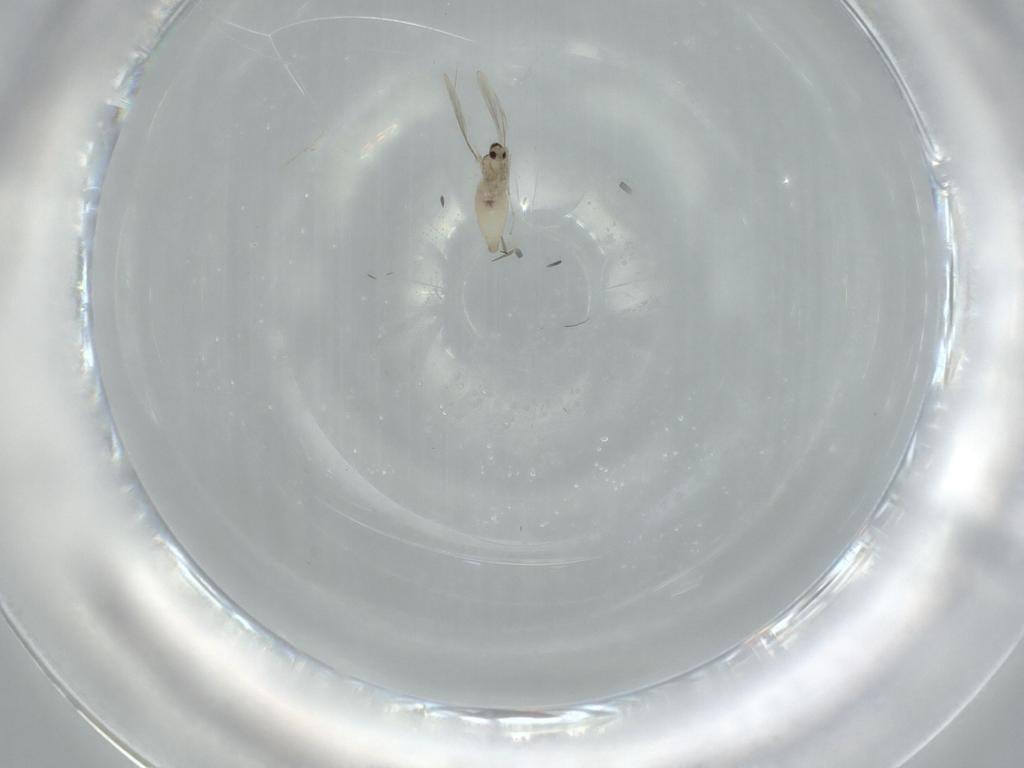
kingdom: Animalia
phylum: Arthropoda
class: Insecta
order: Diptera
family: Cecidomyiidae
